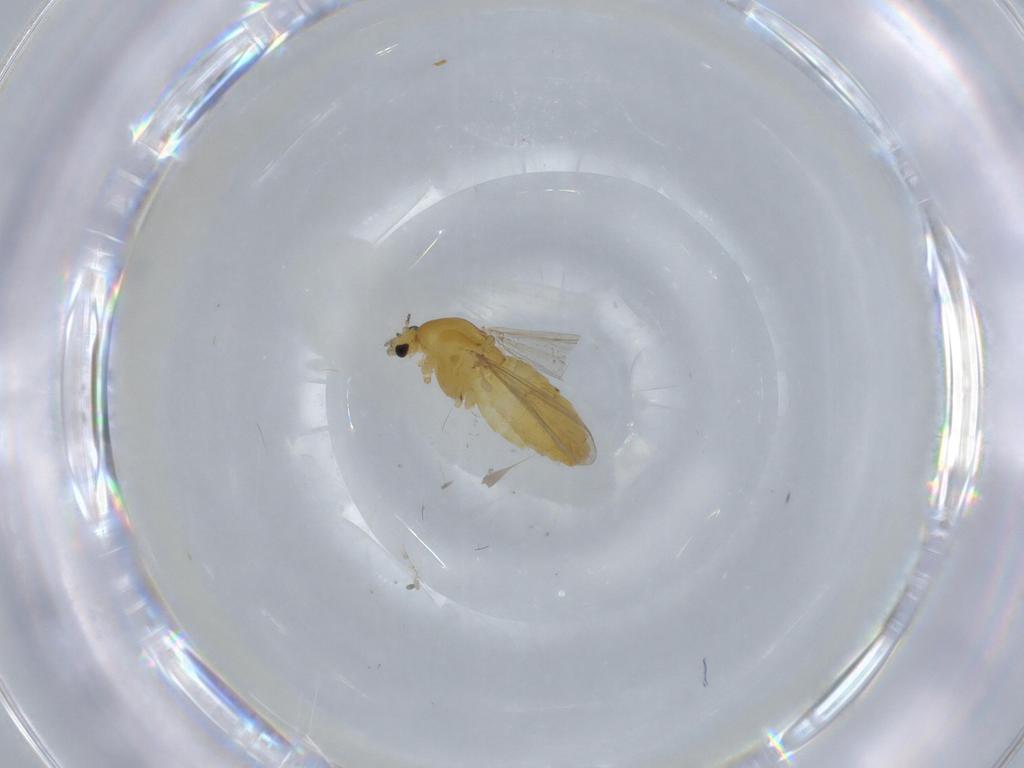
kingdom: Animalia
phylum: Arthropoda
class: Insecta
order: Diptera
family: Chironomidae
